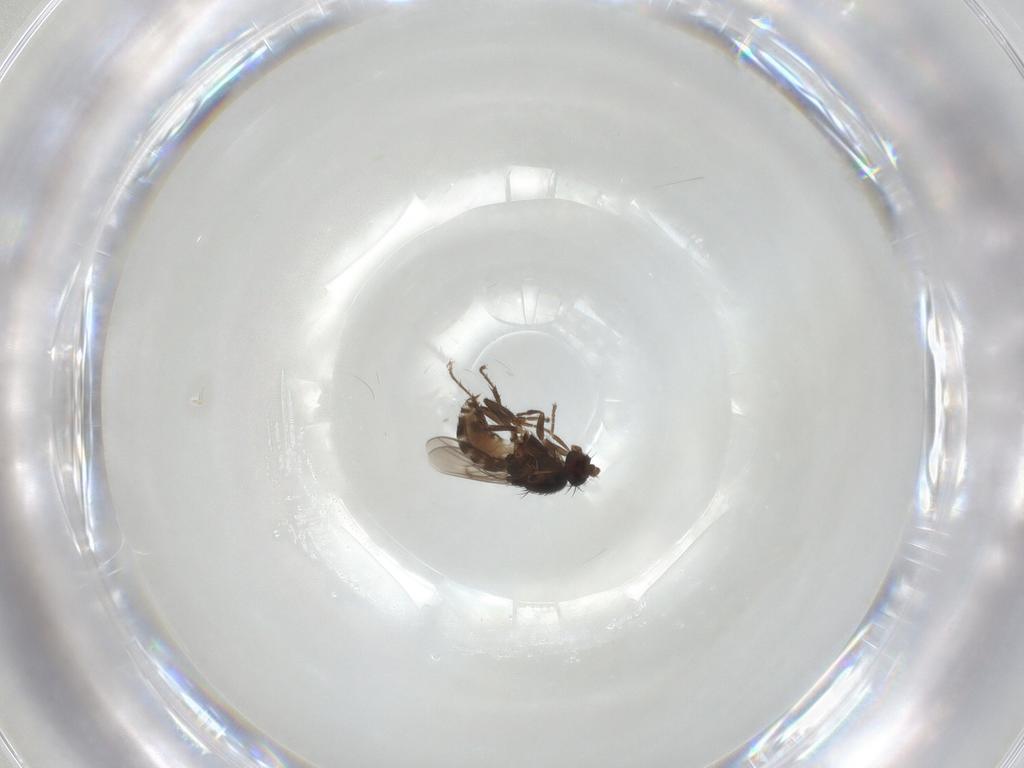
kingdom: Animalia
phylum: Arthropoda
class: Insecta
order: Diptera
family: Sphaeroceridae
